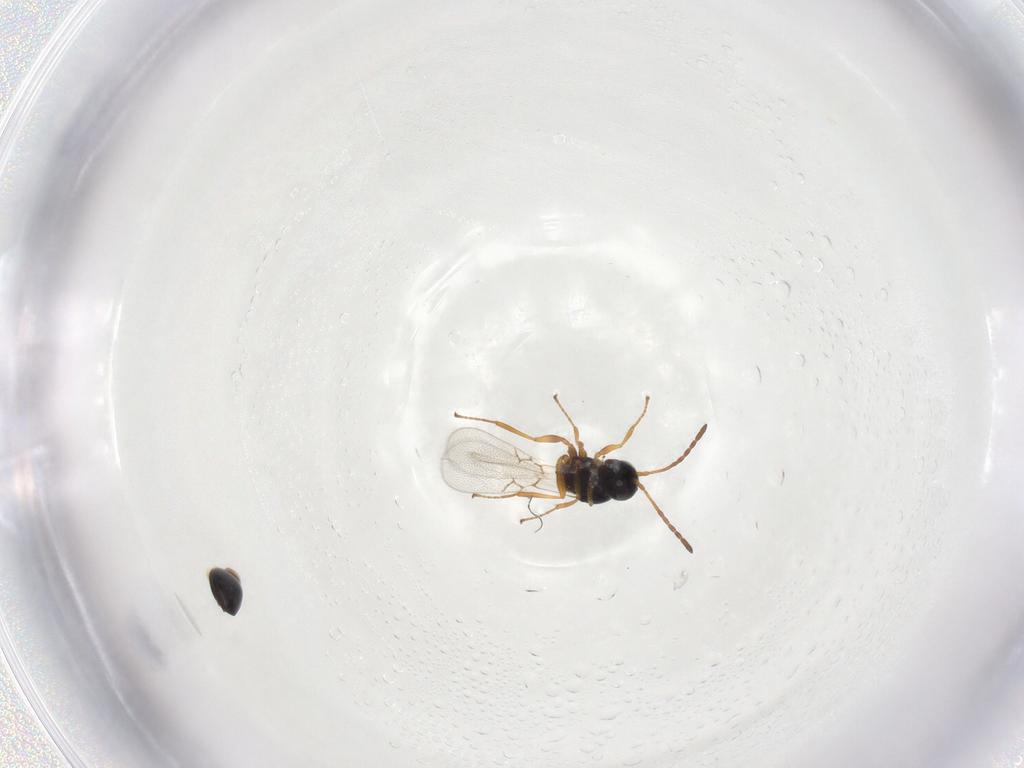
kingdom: Animalia
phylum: Arthropoda
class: Insecta
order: Hymenoptera
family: Figitidae
